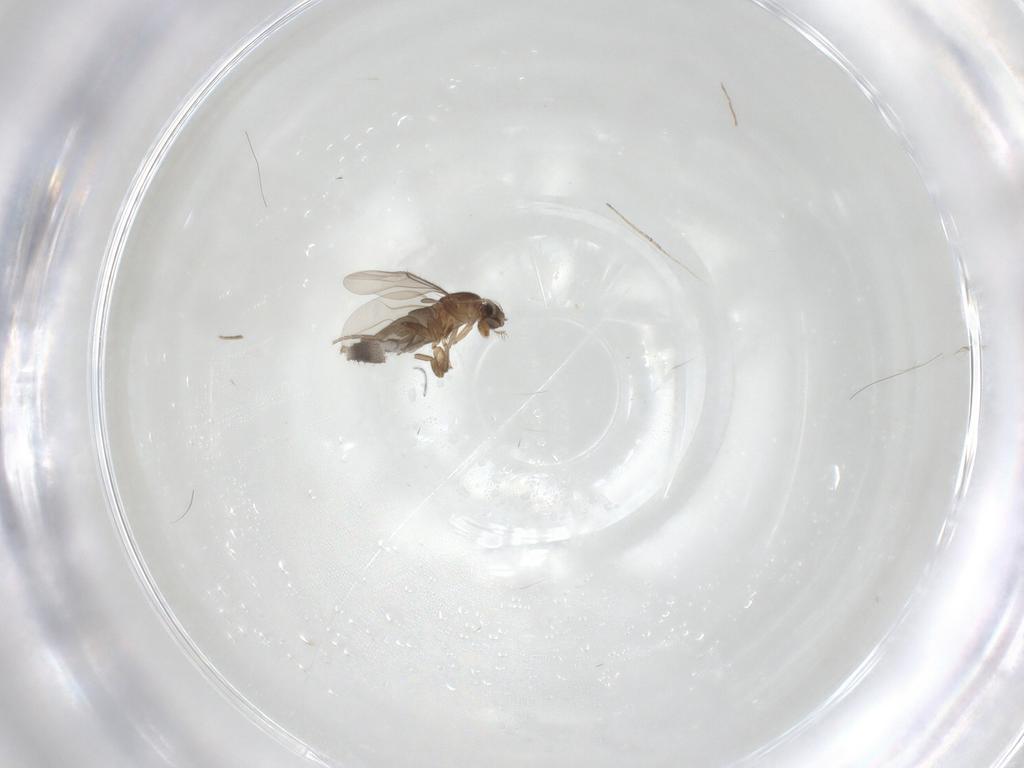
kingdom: Animalia
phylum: Arthropoda
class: Insecta
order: Diptera
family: Phoridae
